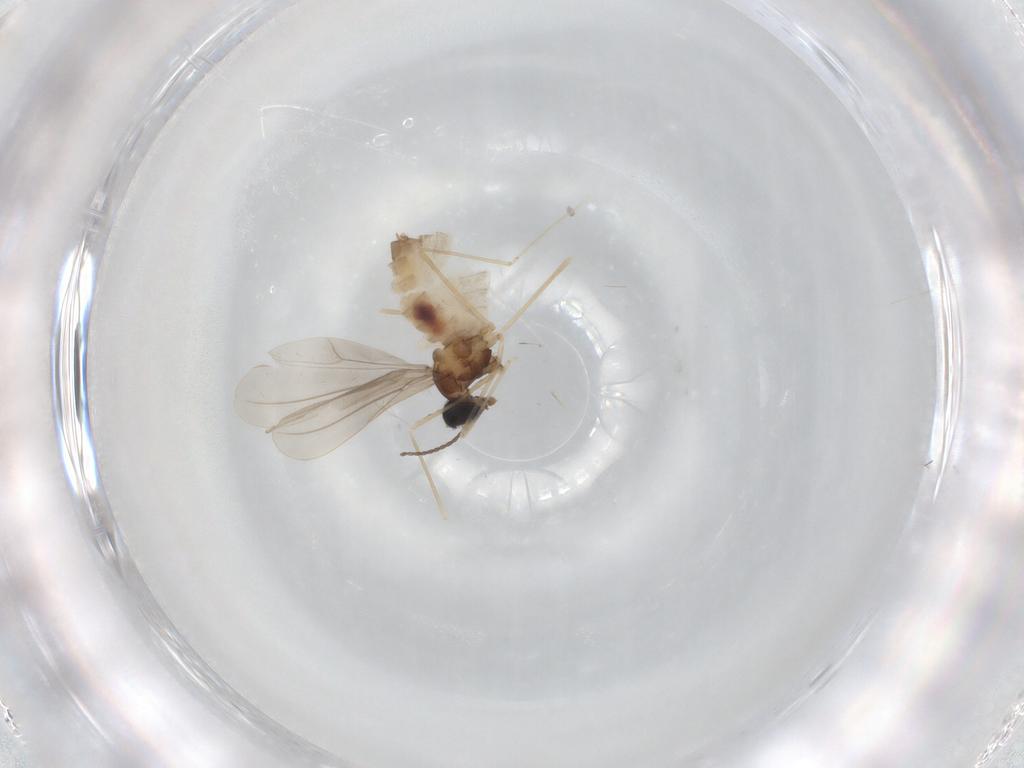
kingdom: Animalia
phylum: Arthropoda
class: Insecta
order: Diptera
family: Cecidomyiidae
